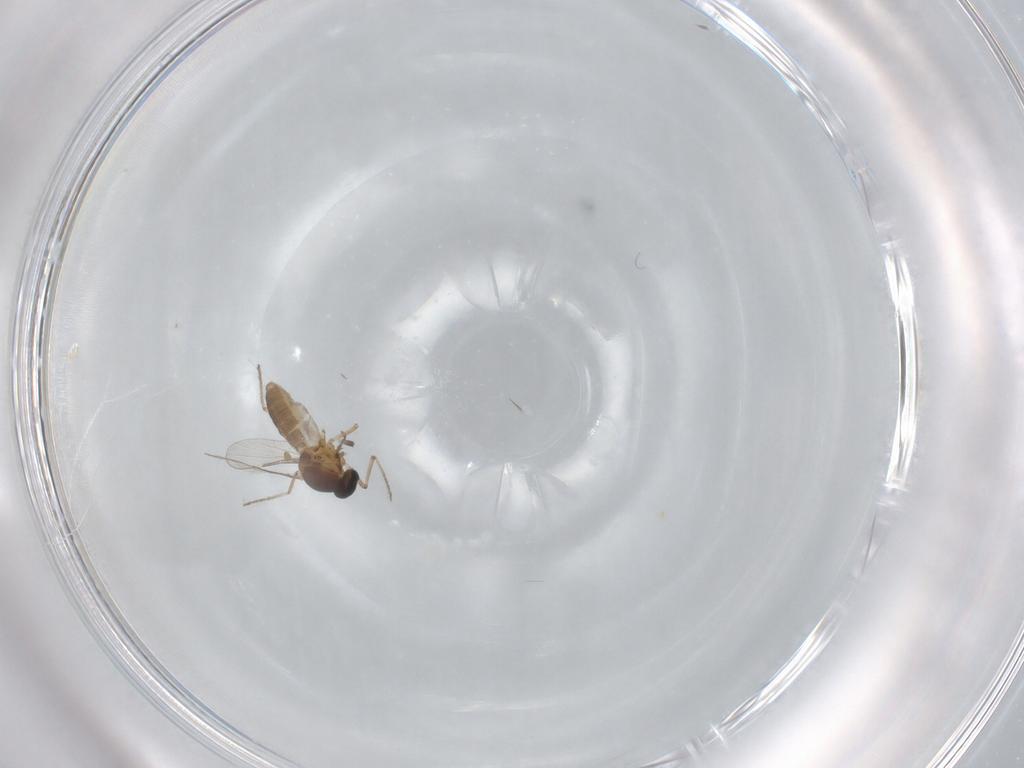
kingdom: Animalia
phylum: Arthropoda
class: Insecta
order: Diptera
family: Ceratopogonidae
